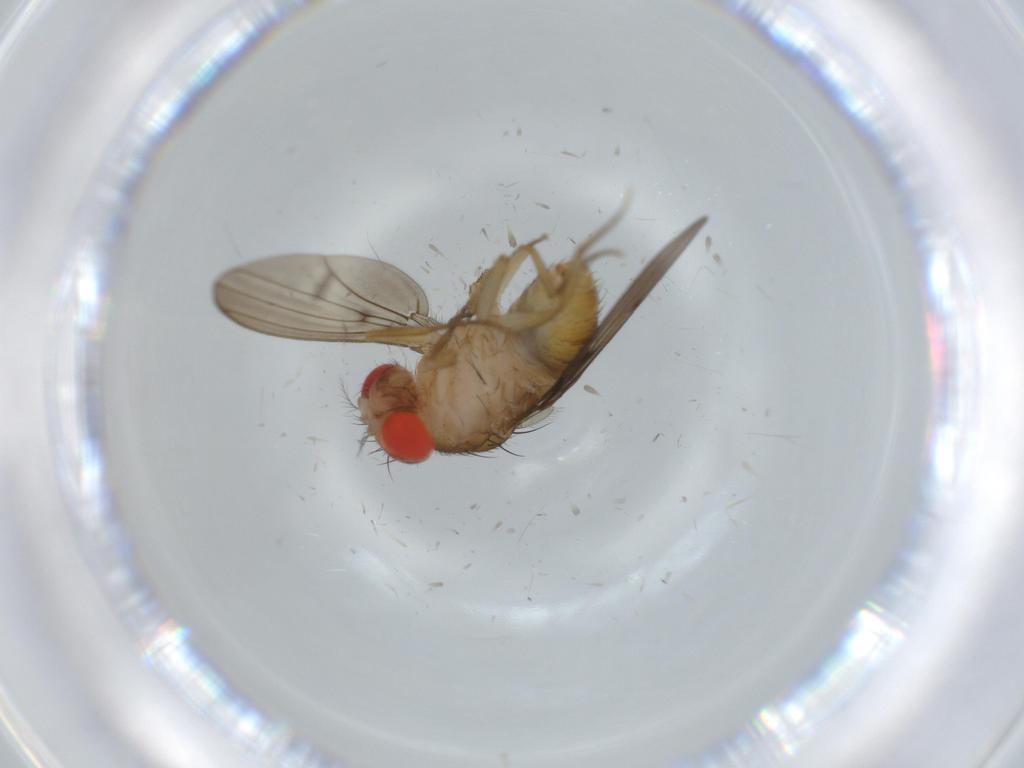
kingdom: Animalia
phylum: Arthropoda
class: Insecta
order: Diptera
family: Drosophilidae
